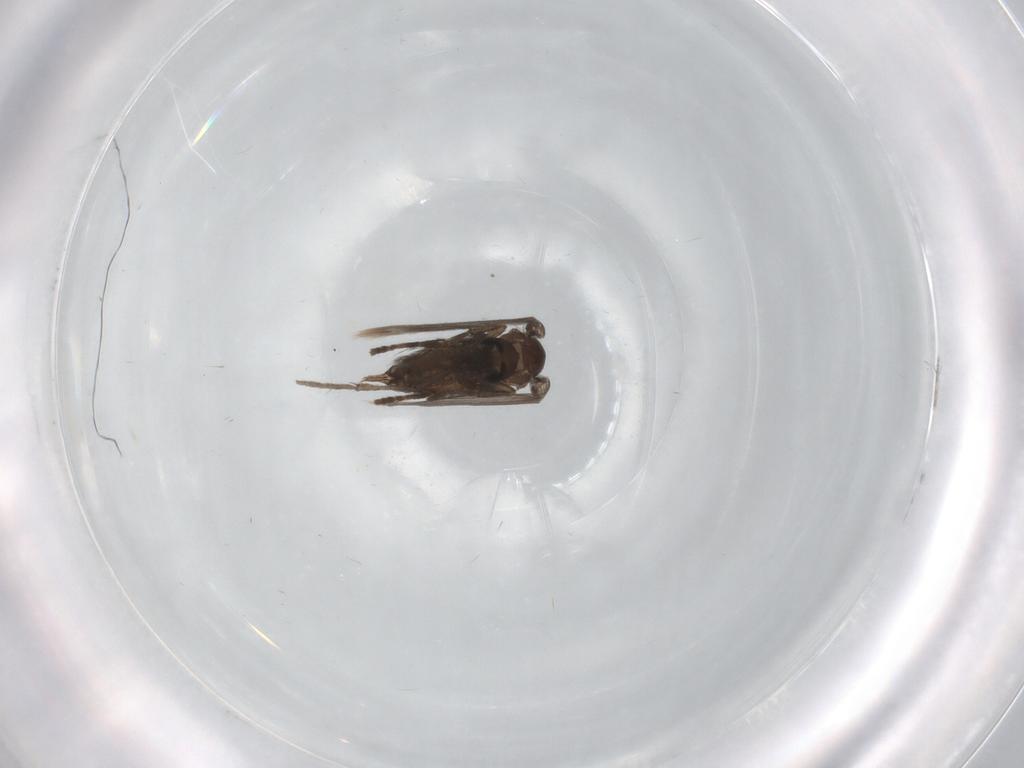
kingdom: Animalia
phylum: Arthropoda
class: Insecta
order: Diptera
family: Psychodidae
